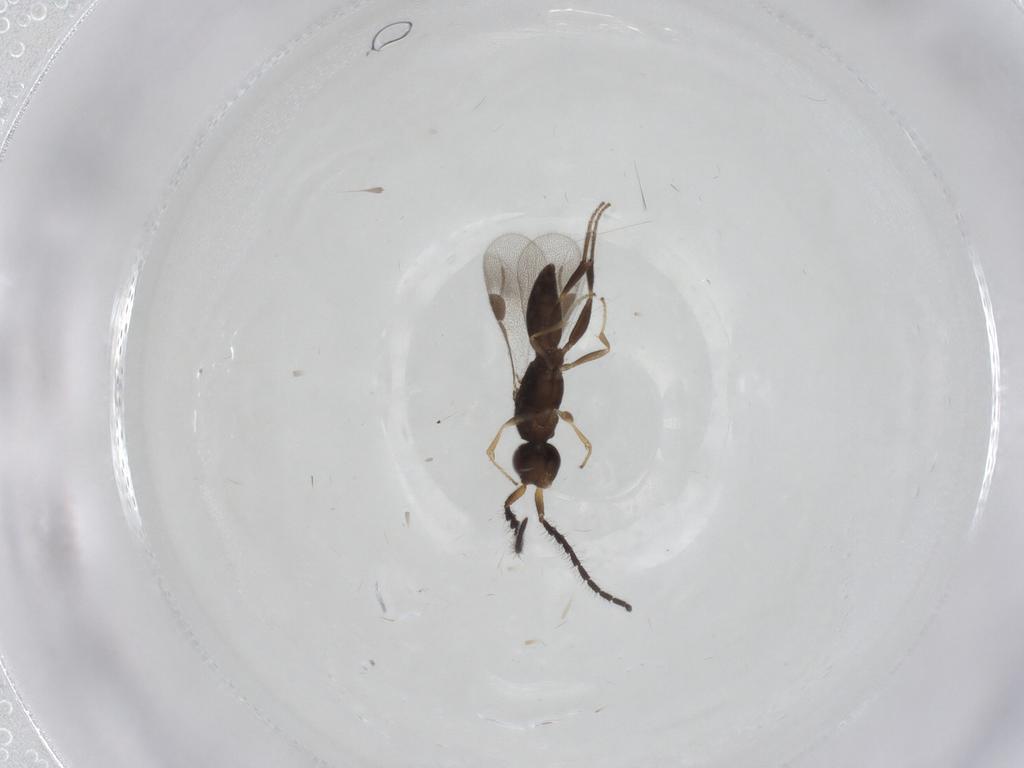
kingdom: Animalia
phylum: Arthropoda
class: Insecta
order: Hymenoptera
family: Megaspilidae
